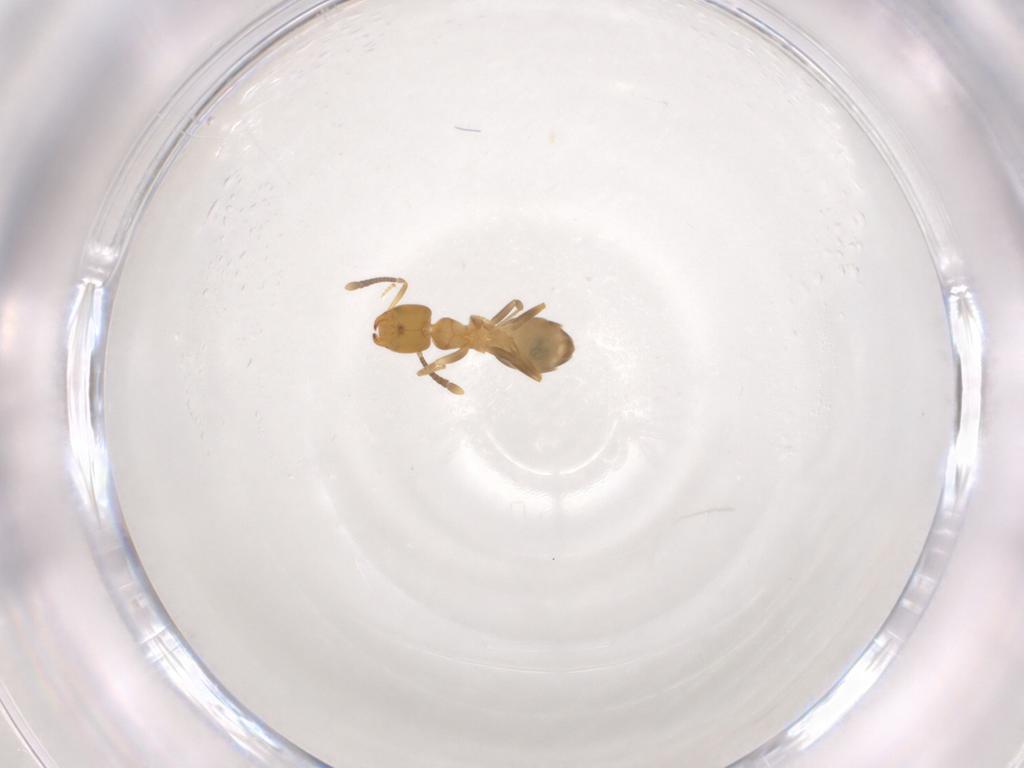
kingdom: Animalia
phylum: Arthropoda
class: Insecta
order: Hymenoptera
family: Formicidae
